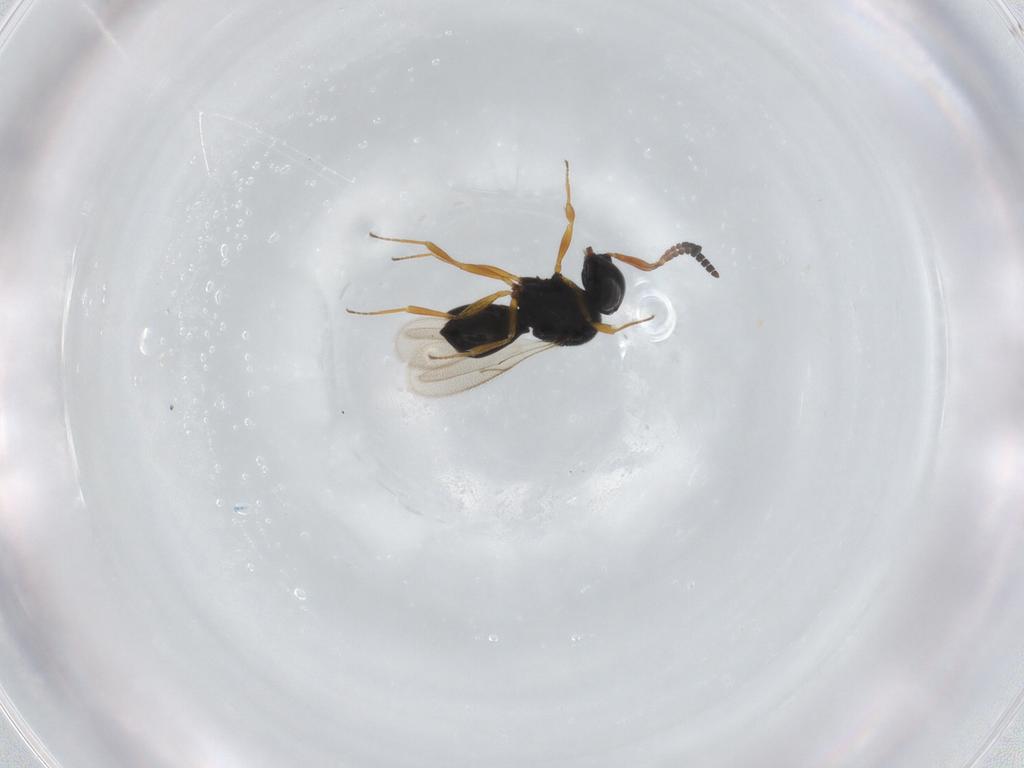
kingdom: Animalia
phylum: Arthropoda
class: Insecta
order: Hymenoptera
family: Scelionidae
